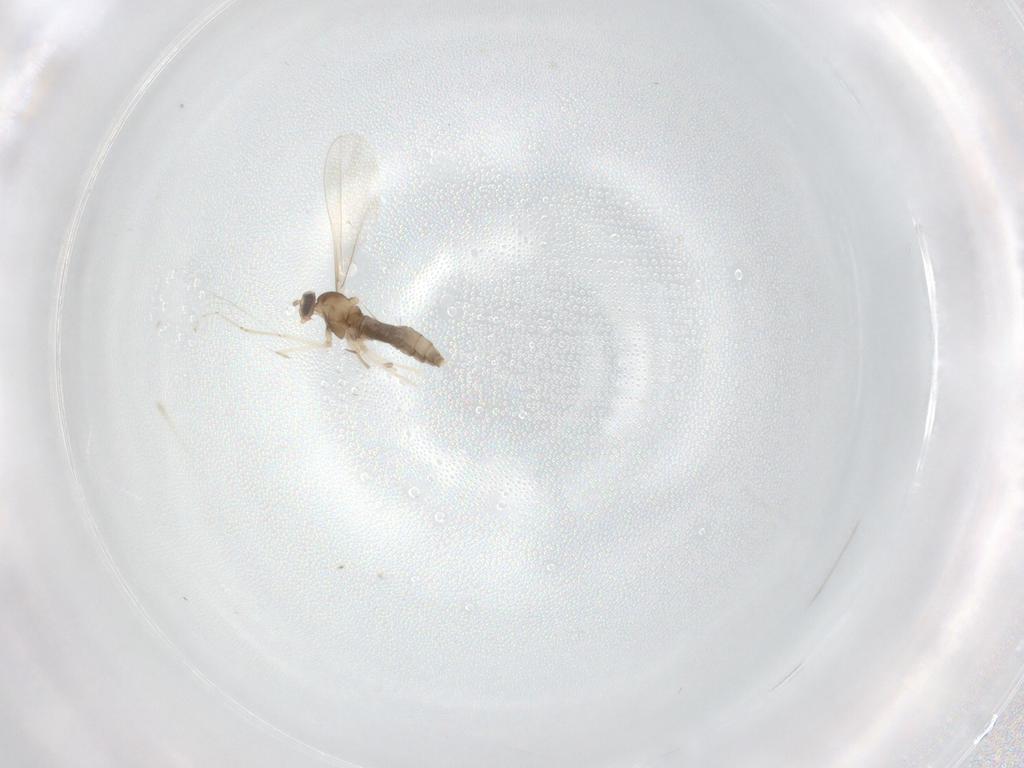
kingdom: Animalia
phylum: Arthropoda
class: Insecta
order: Diptera
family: Cecidomyiidae
